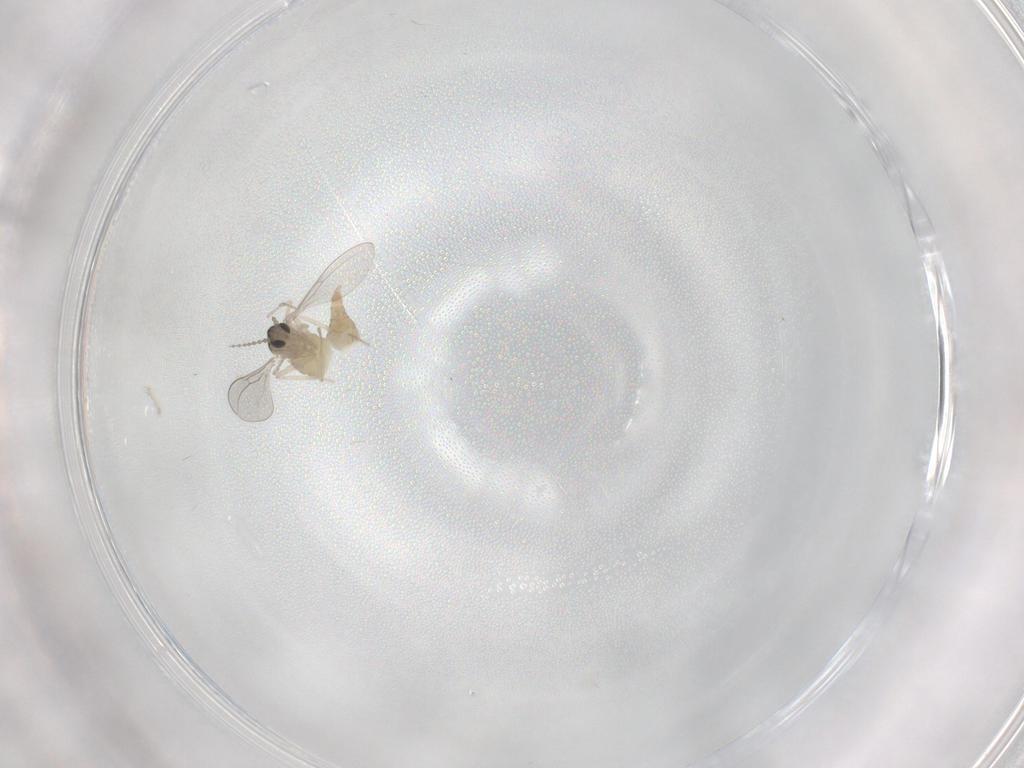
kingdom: Animalia
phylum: Arthropoda
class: Insecta
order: Diptera
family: Cecidomyiidae
